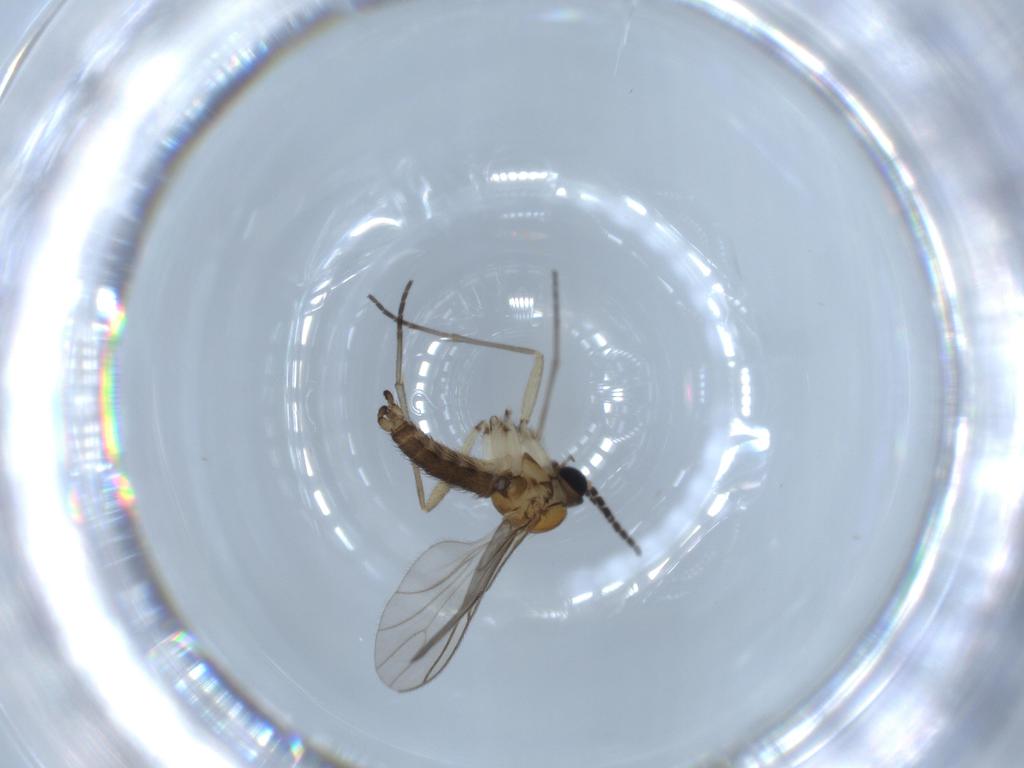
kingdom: Animalia
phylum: Arthropoda
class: Insecta
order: Diptera
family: Sciaridae
